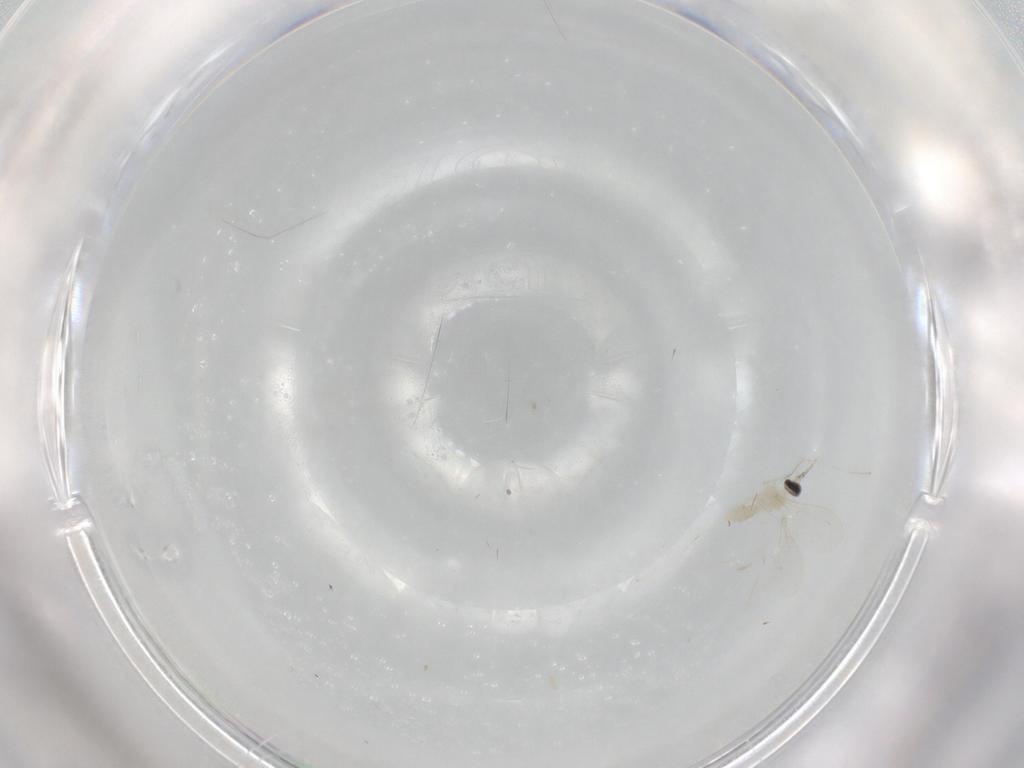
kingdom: Animalia
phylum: Arthropoda
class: Insecta
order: Diptera
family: Cecidomyiidae
